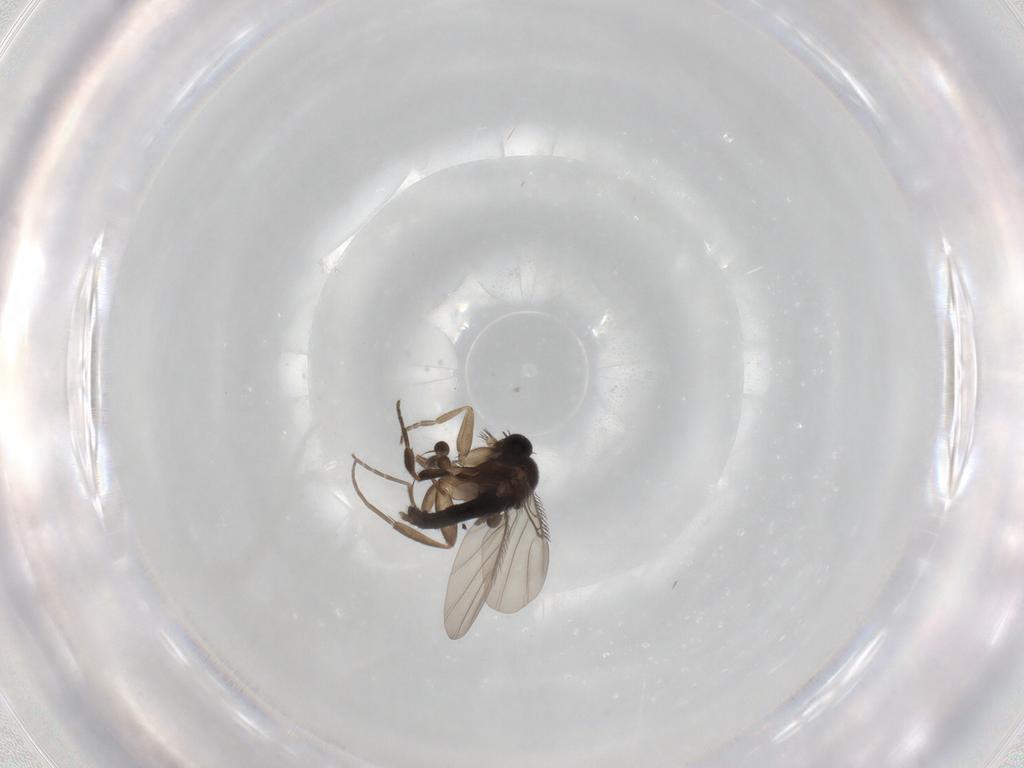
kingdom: Animalia
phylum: Arthropoda
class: Insecta
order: Diptera
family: Phoridae
